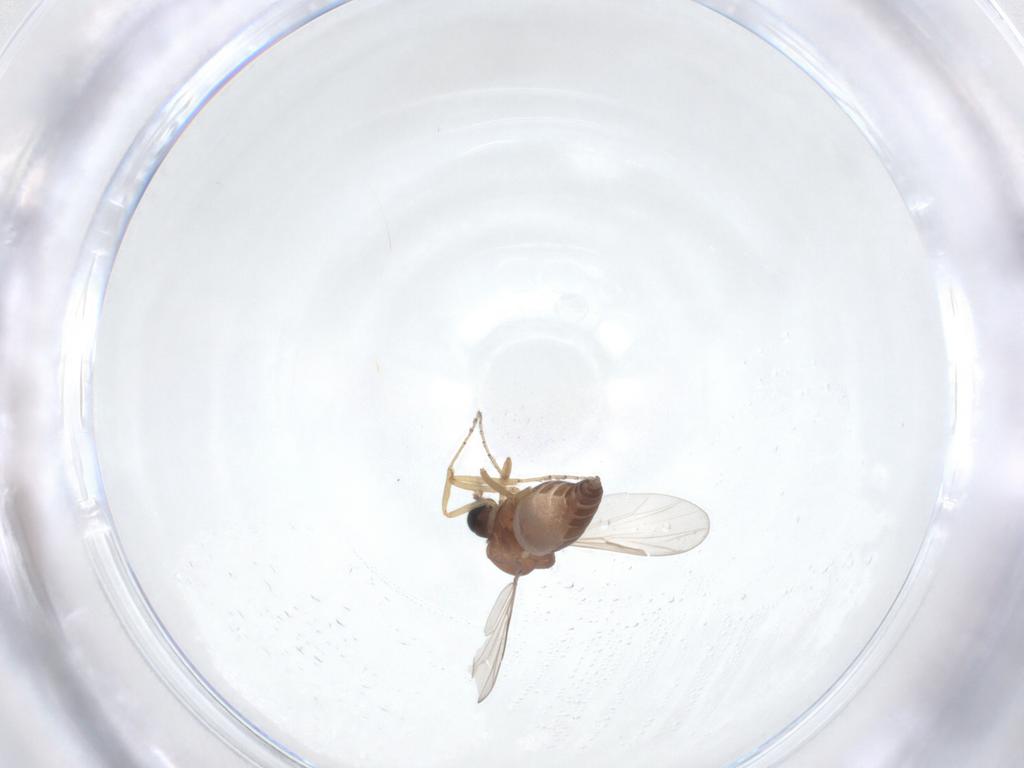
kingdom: Animalia
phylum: Arthropoda
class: Insecta
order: Diptera
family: Ceratopogonidae
